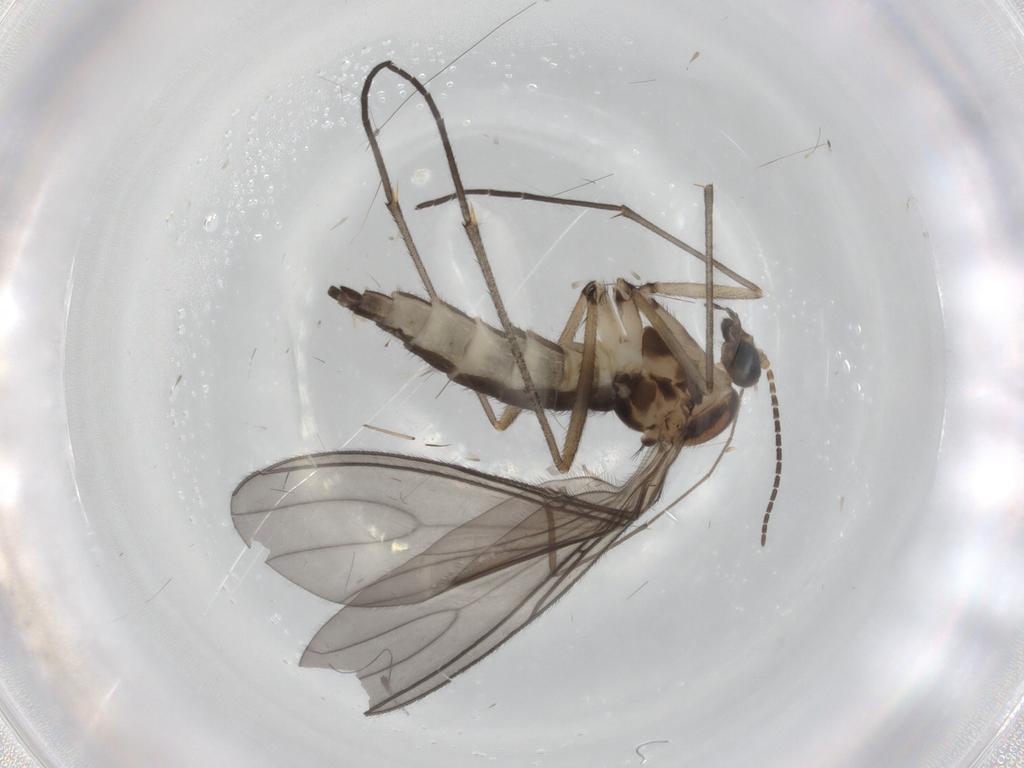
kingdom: Animalia
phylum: Arthropoda
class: Insecta
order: Diptera
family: Sciaridae
